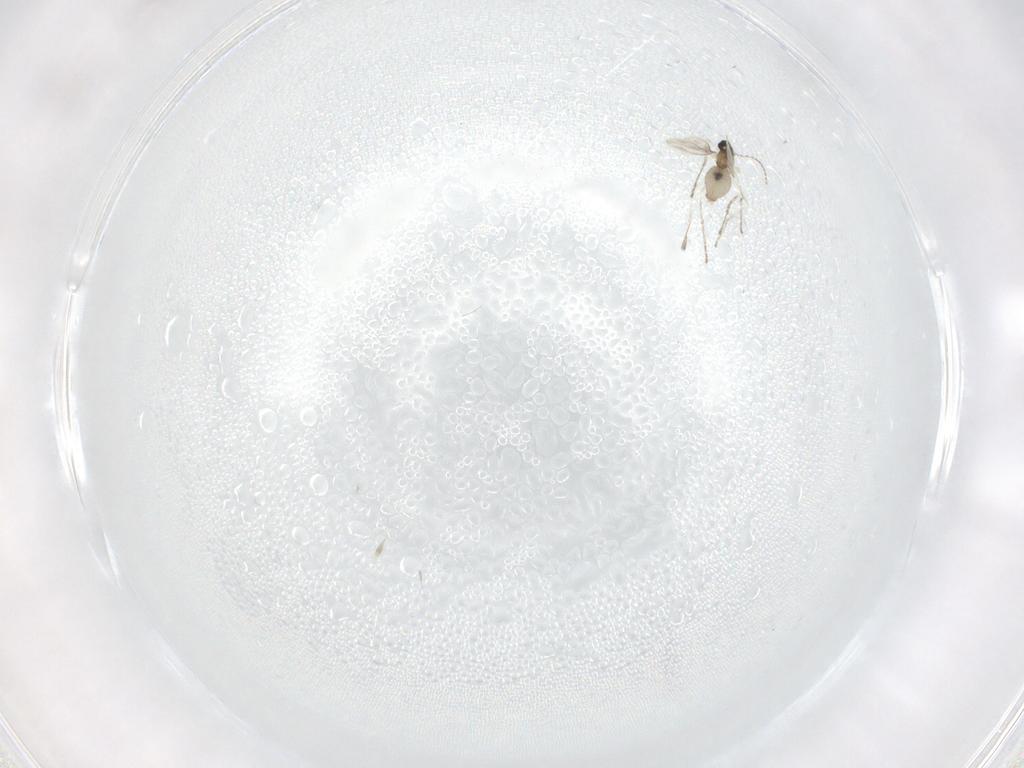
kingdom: Animalia
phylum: Arthropoda
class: Insecta
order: Diptera
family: Cecidomyiidae
